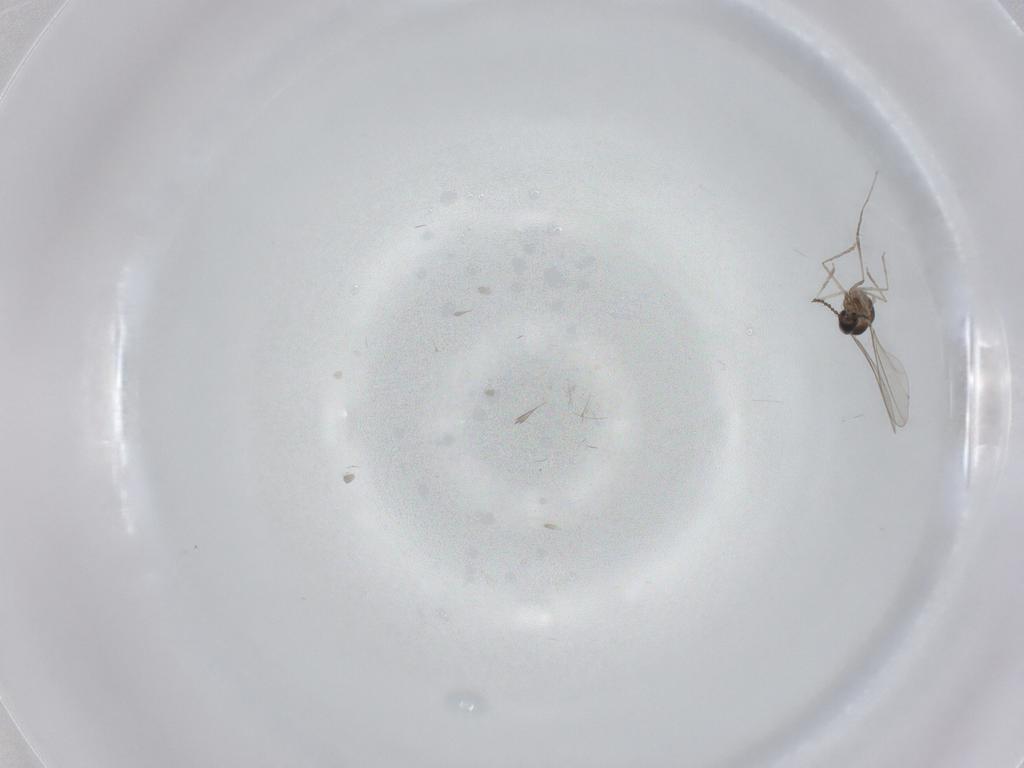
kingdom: Animalia
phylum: Arthropoda
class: Insecta
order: Diptera
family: Cecidomyiidae
